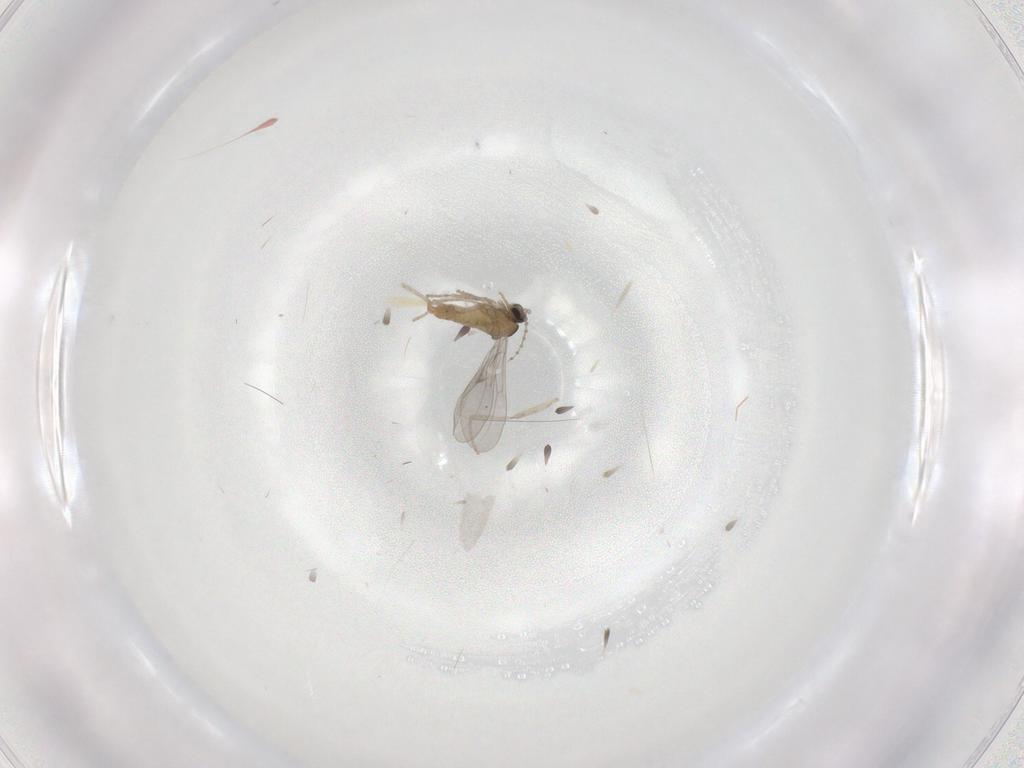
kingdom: Animalia
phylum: Arthropoda
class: Insecta
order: Diptera
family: Cecidomyiidae
